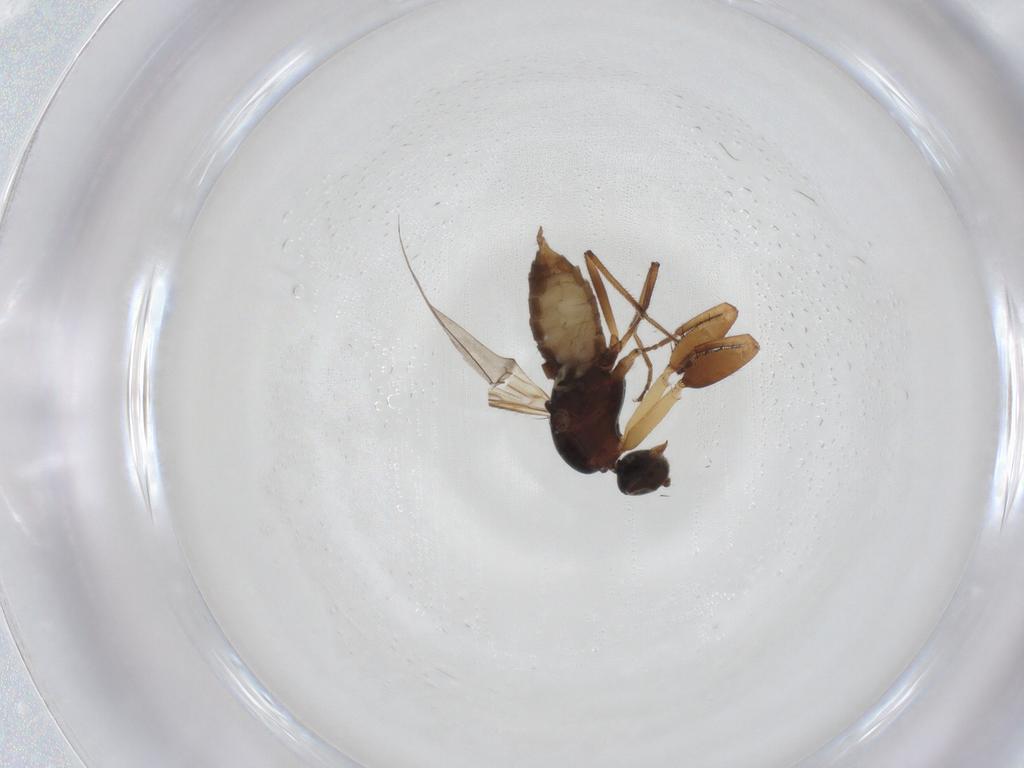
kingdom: Animalia
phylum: Arthropoda
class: Insecta
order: Diptera
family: Empididae
